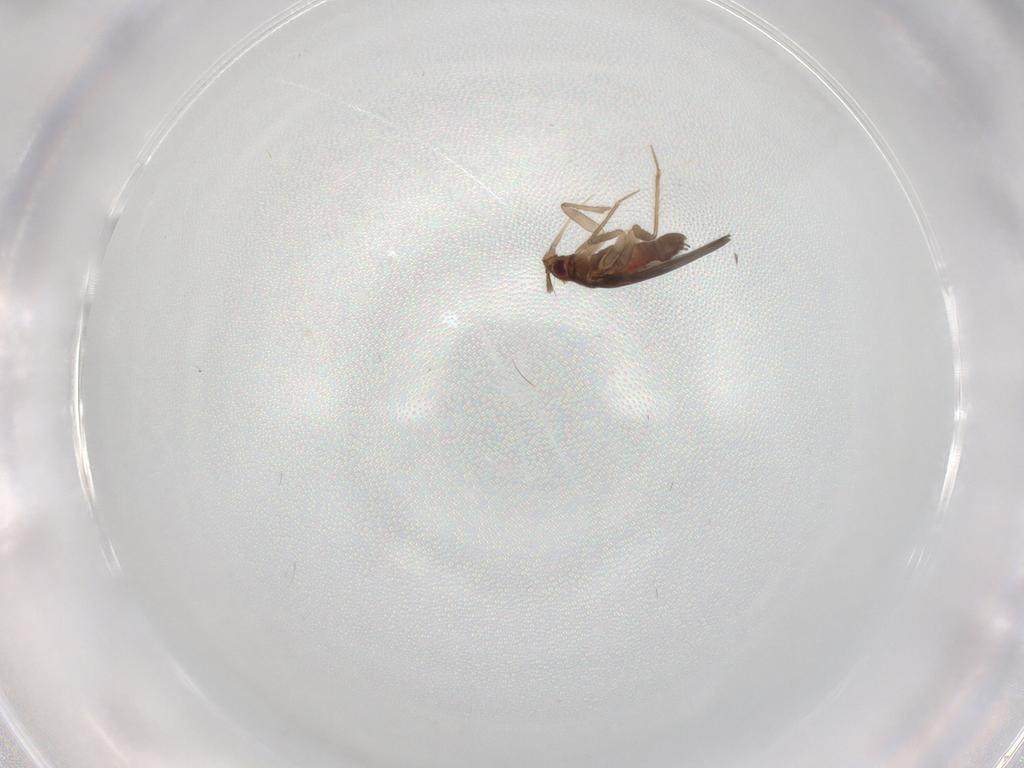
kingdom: Animalia
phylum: Arthropoda
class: Insecta
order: Hemiptera
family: Ceratocombidae
